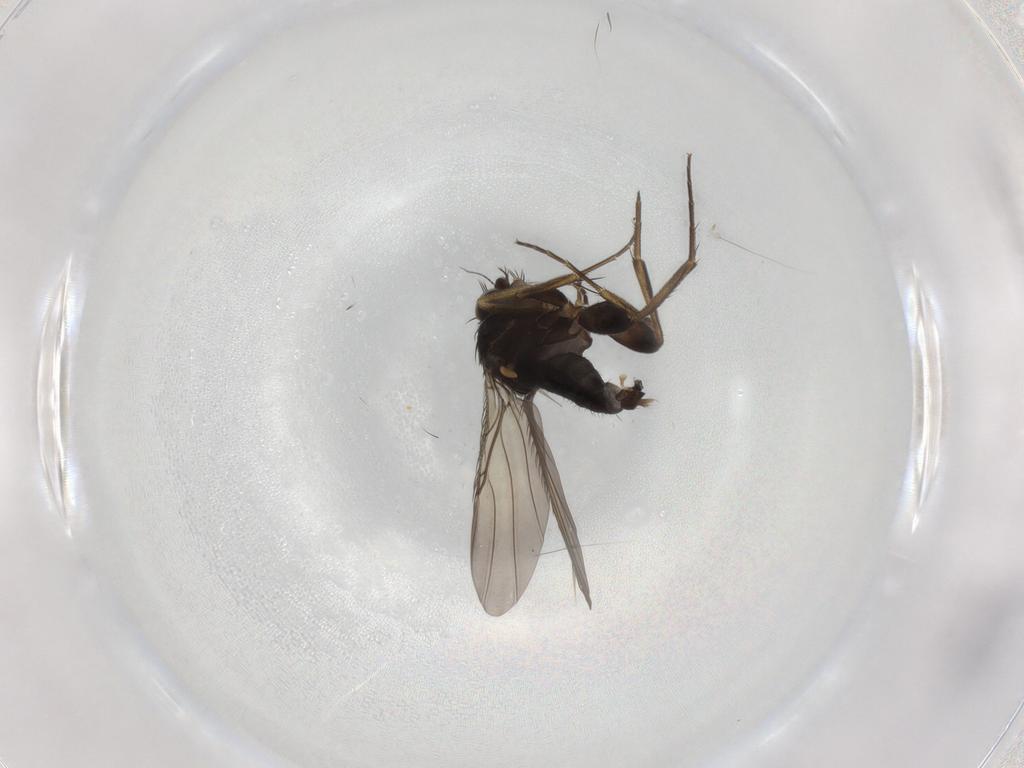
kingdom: Animalia
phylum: Arthropoda
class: Insecta
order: Diptera
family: Phoridae
